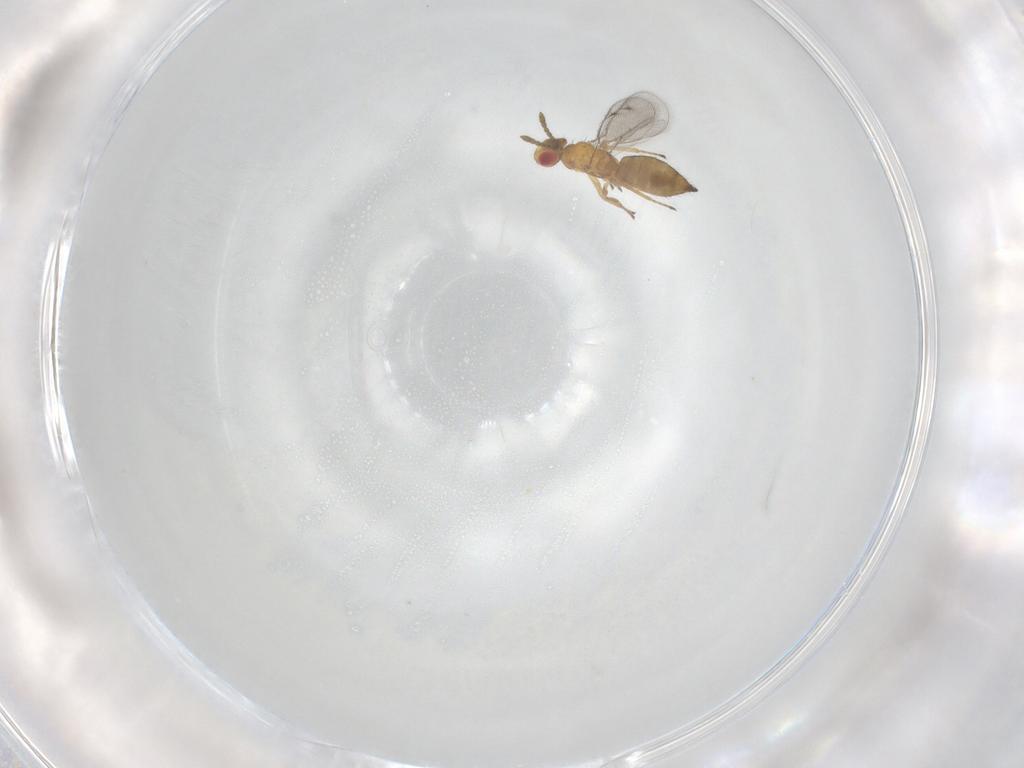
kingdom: Animalia
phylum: Arthropoda
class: Insecta
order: Hymenoptera
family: Eulophidae
